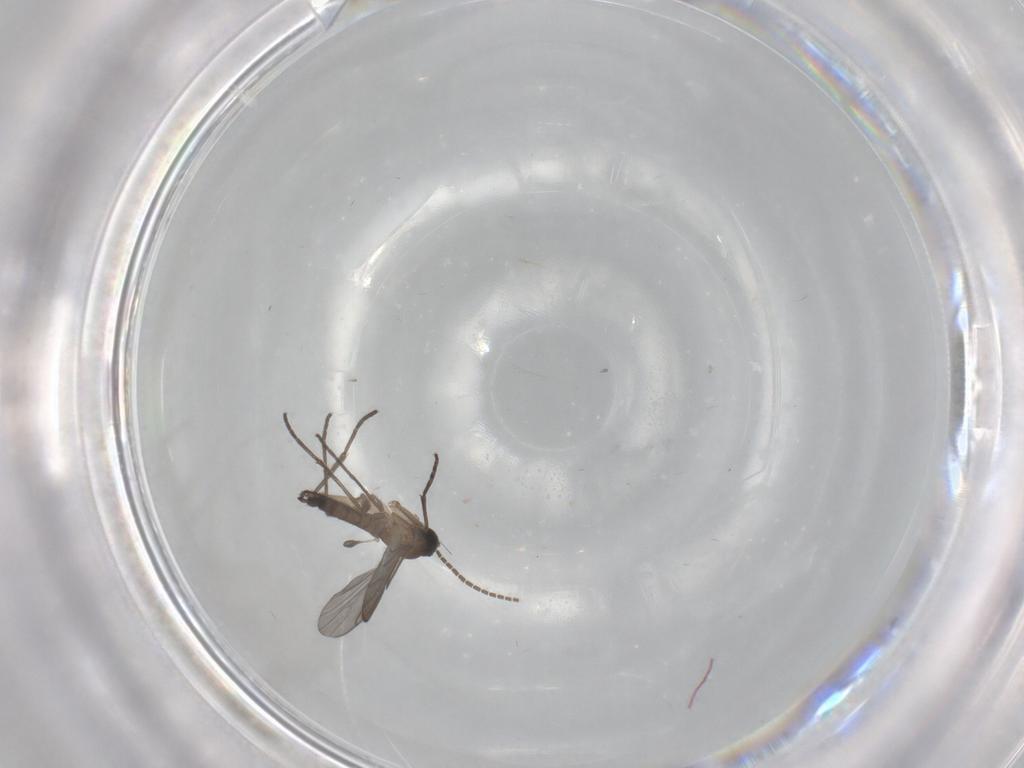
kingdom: Animalia
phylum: Arthropoda
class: Insecta
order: Diptera
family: Sciaridae
